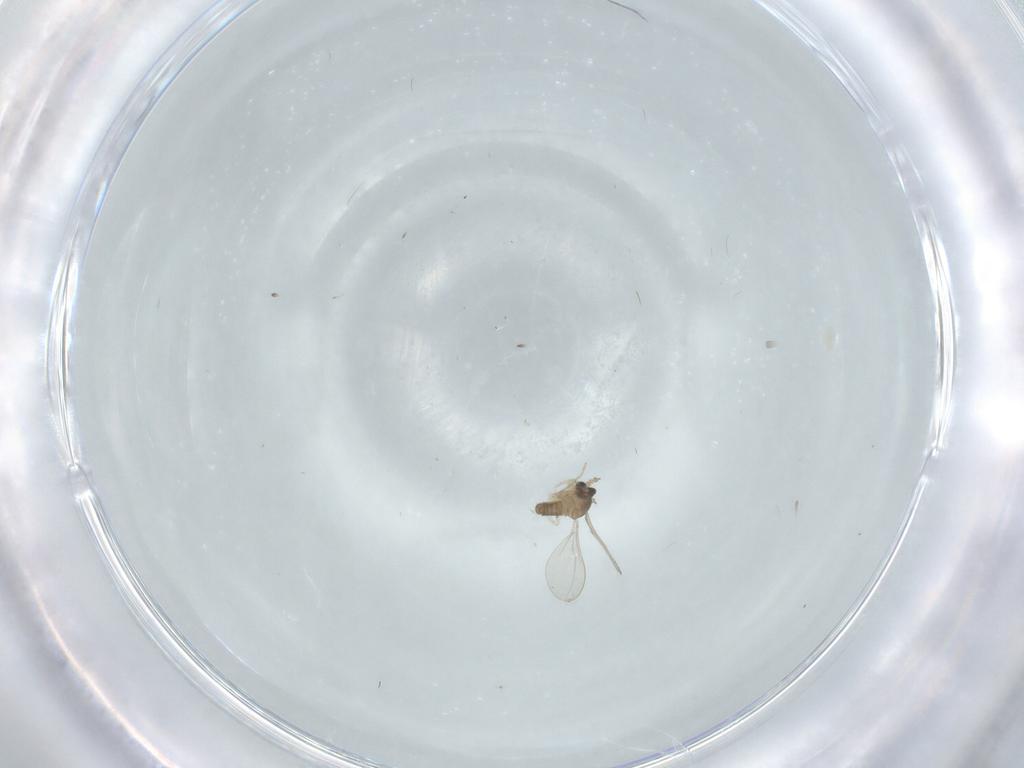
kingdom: Animalia
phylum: Arthropoda
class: Insecta
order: Diptera
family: Cecidomyiidae
